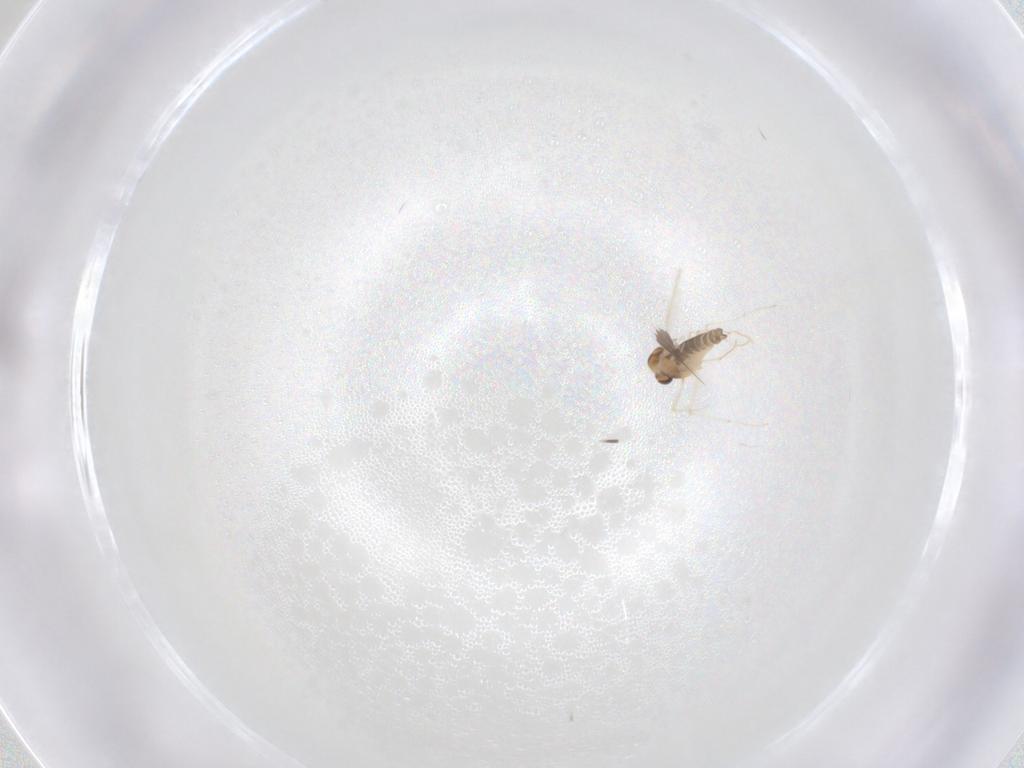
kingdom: Animalia
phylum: Arthropoda
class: Insecta
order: Diptera
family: Chironomidae
